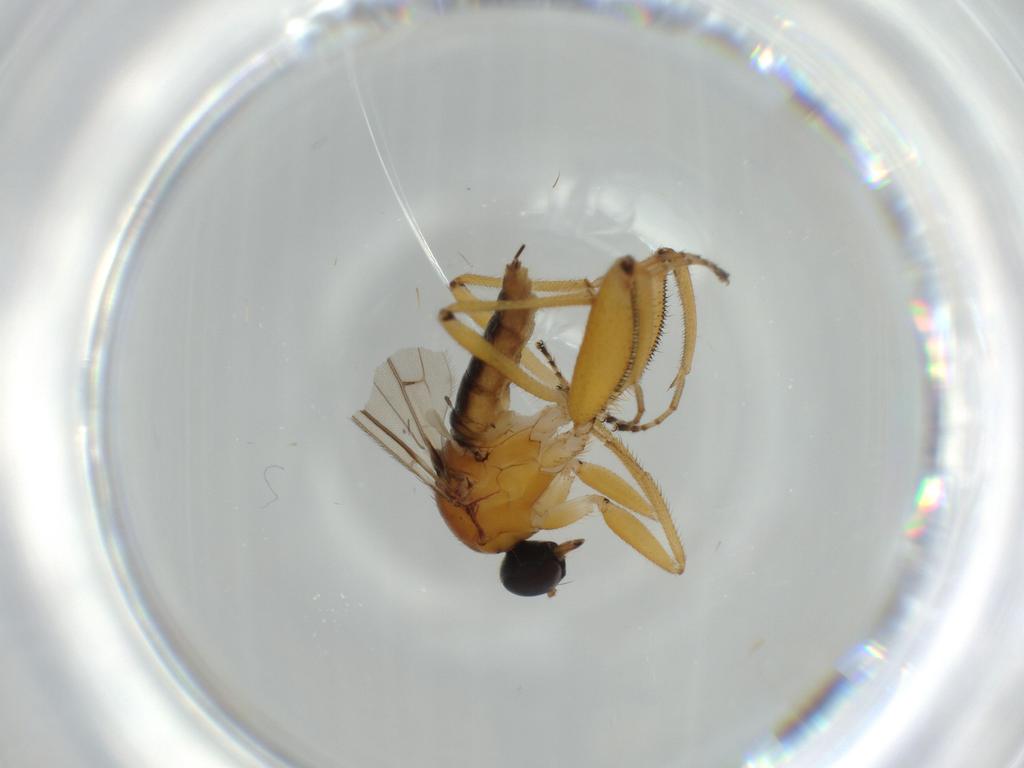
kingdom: Animalia
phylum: Arthropoda
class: Insecta
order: Diptera
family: Hybotidae
